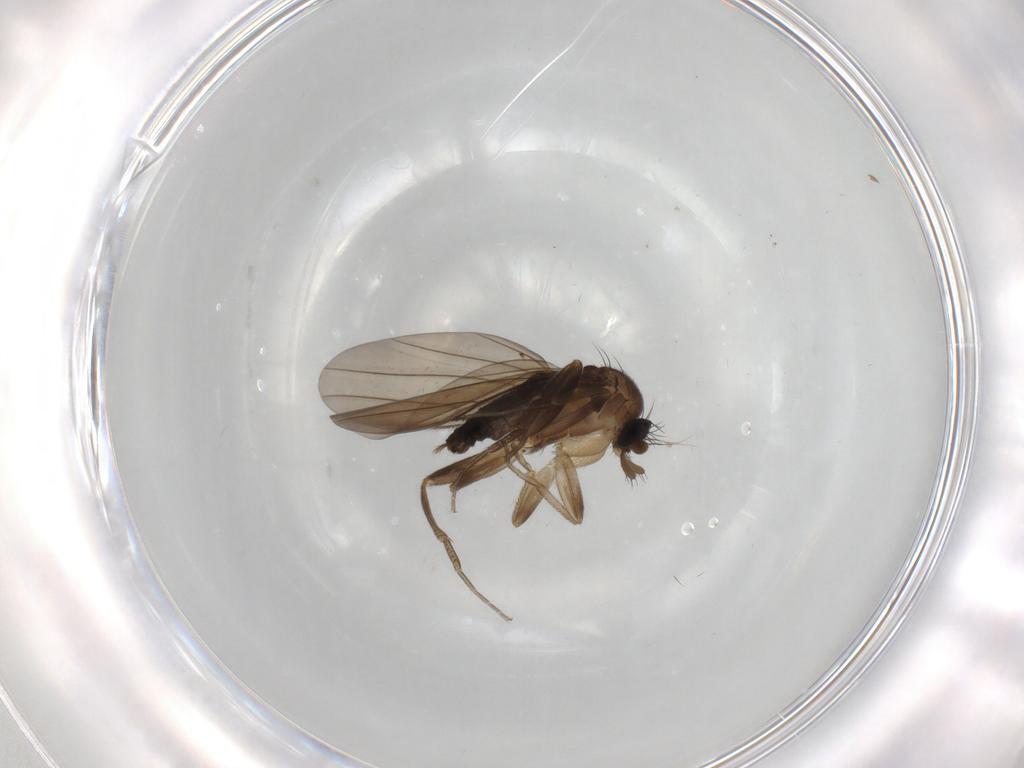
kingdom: Animalia
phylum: Arthropoda
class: Insecta
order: Diptera
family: Phoridae
